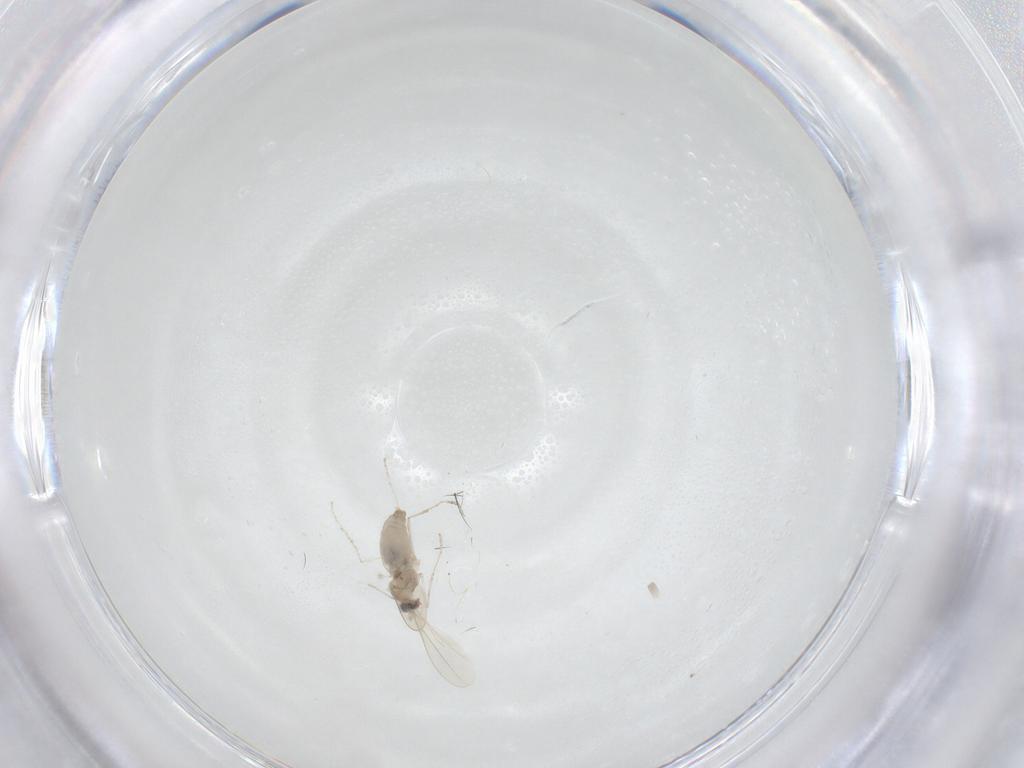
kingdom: Animalia
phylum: Arthropoda
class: Insecta
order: Diptera
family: Cecidomyiidae
